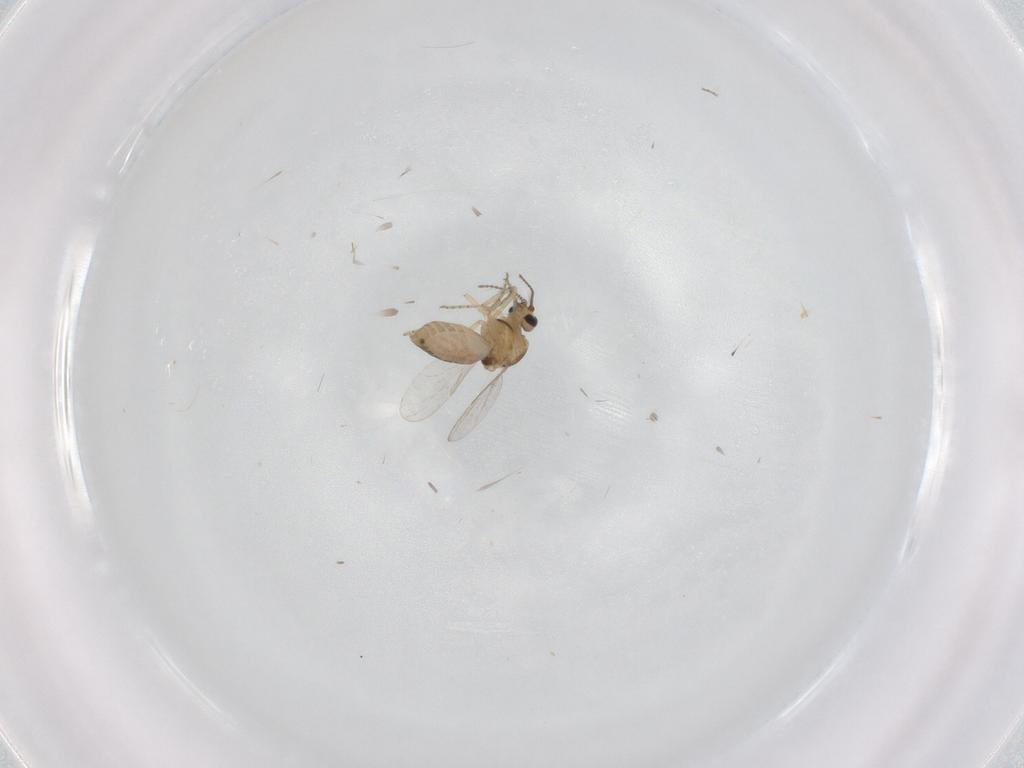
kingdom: Animalia
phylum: Arthropoda
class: Insecta
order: Diptera
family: Ceratopogonidae
